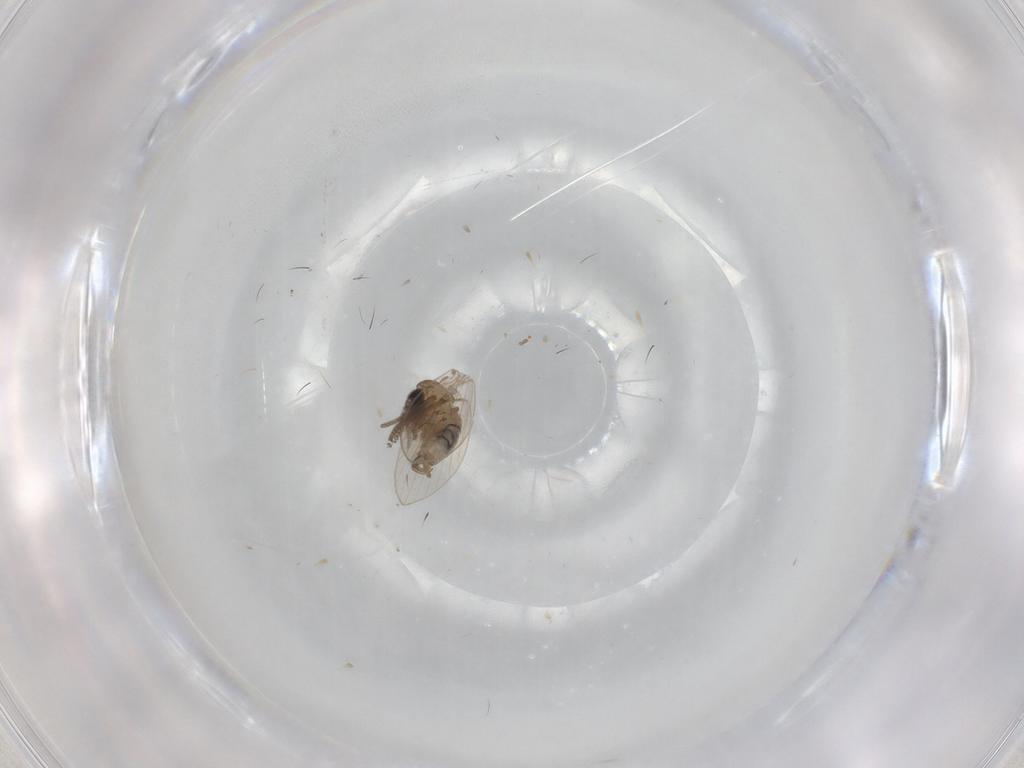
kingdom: Animalia
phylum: Arthropoda
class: Insecta
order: Diptera
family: Psychodidae
